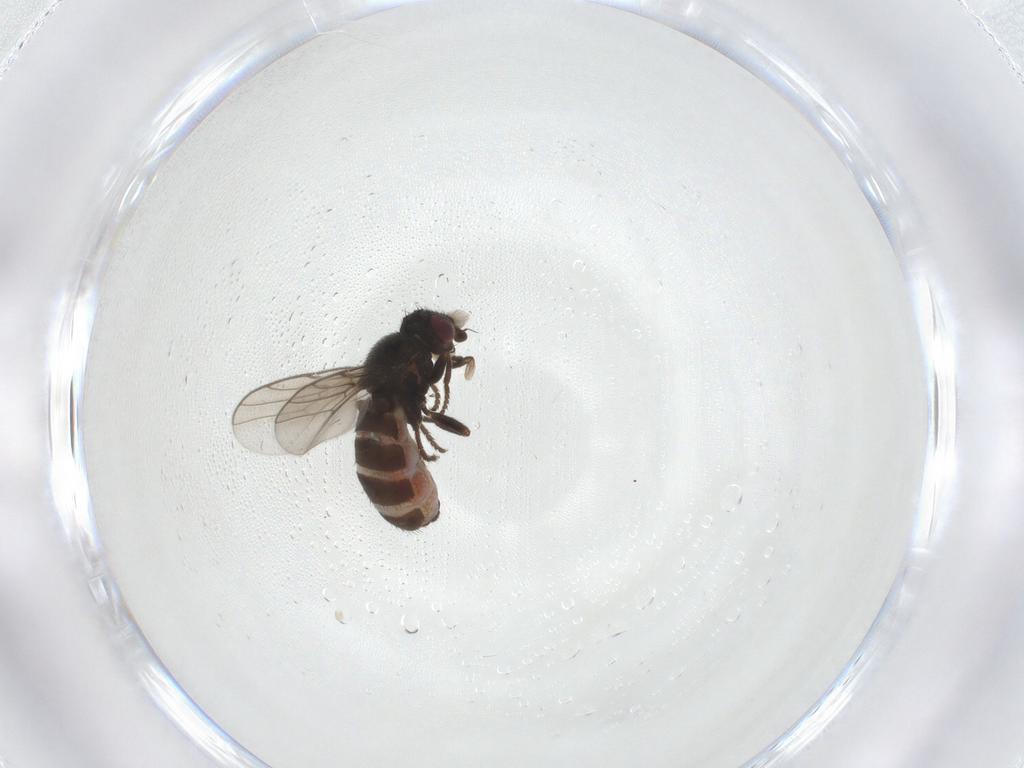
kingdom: Animalia
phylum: Arthropoda
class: Insecta
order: Diptera
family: Chloropidae
